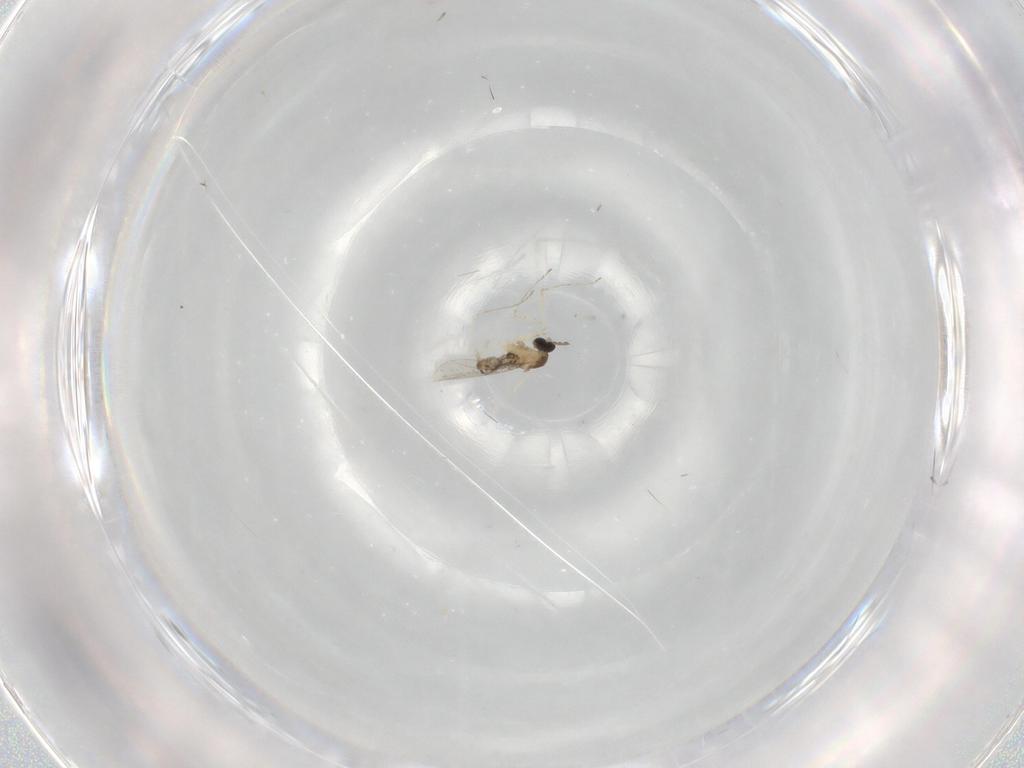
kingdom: Animalia
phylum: Arthropoda
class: Insecta
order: Diptera
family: Cecidomyiidae
